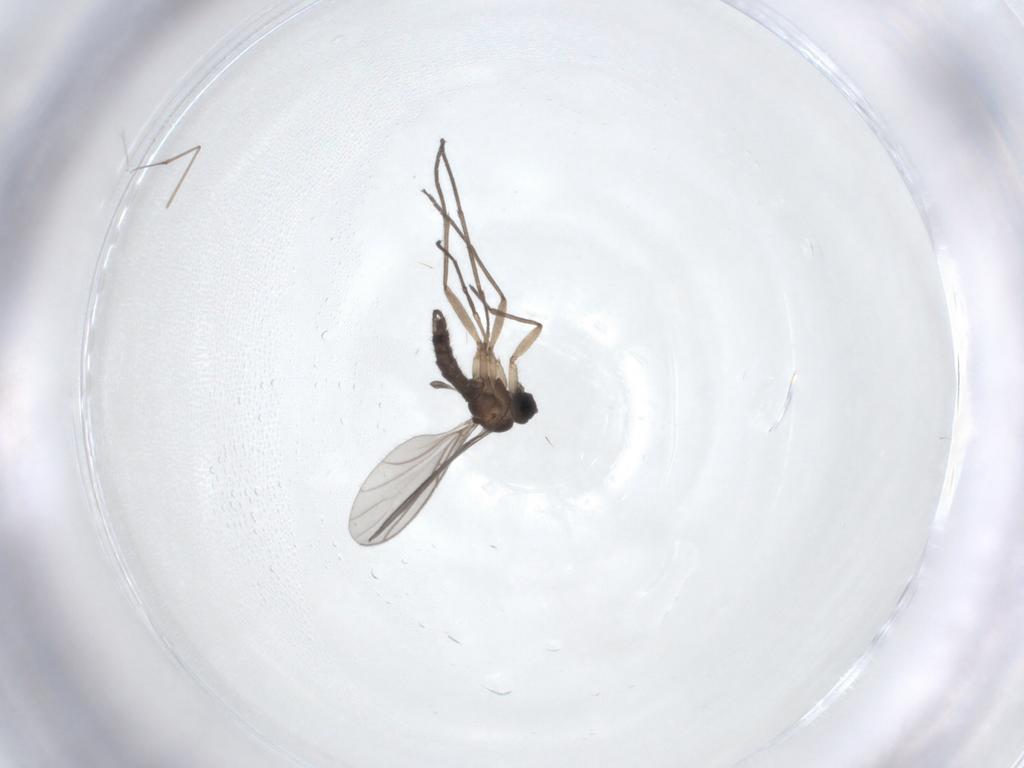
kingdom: Animalia
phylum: Arthropoda
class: Insecta
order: Diptera
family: Sciaridae
